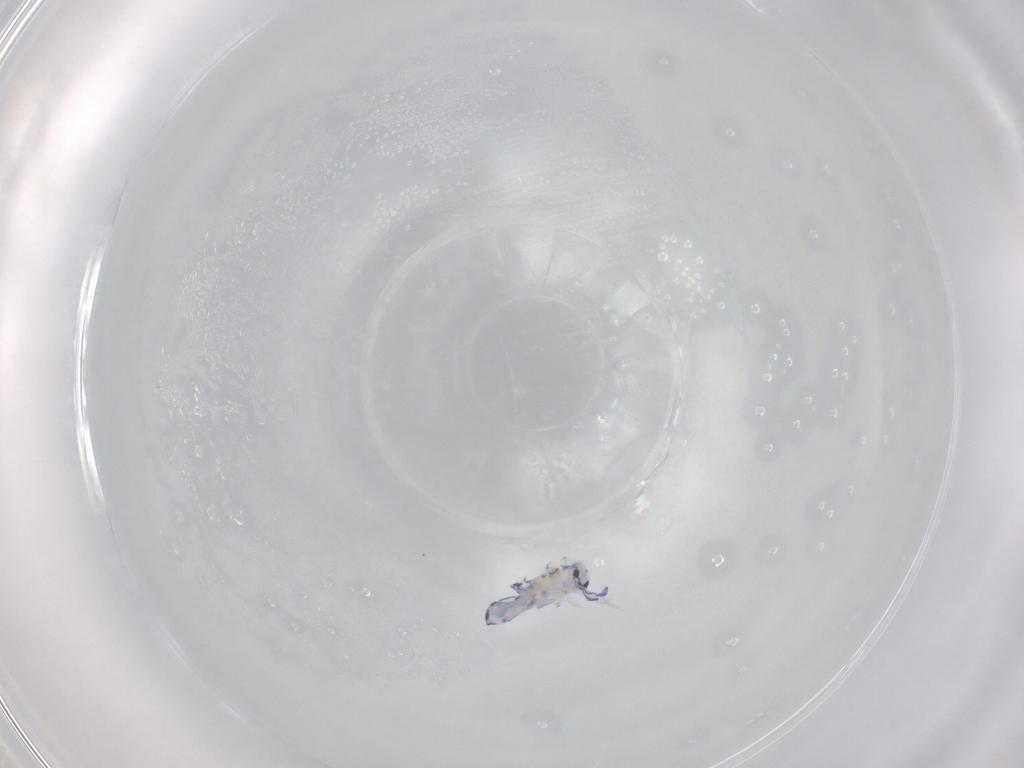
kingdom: Animalia
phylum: Arthropoda
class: Collembola
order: Entomobryomorpha
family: Entomobryidae
